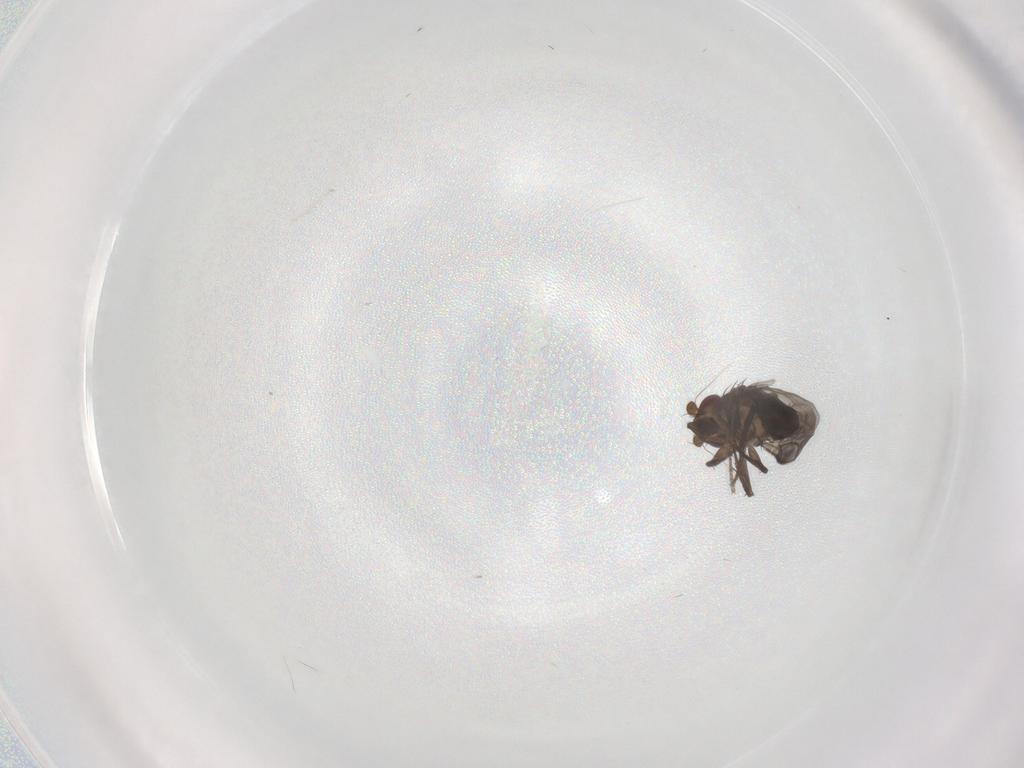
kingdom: Animalia
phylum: Arthropoda
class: Insecta
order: Diptera
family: Sphaeroceridae
